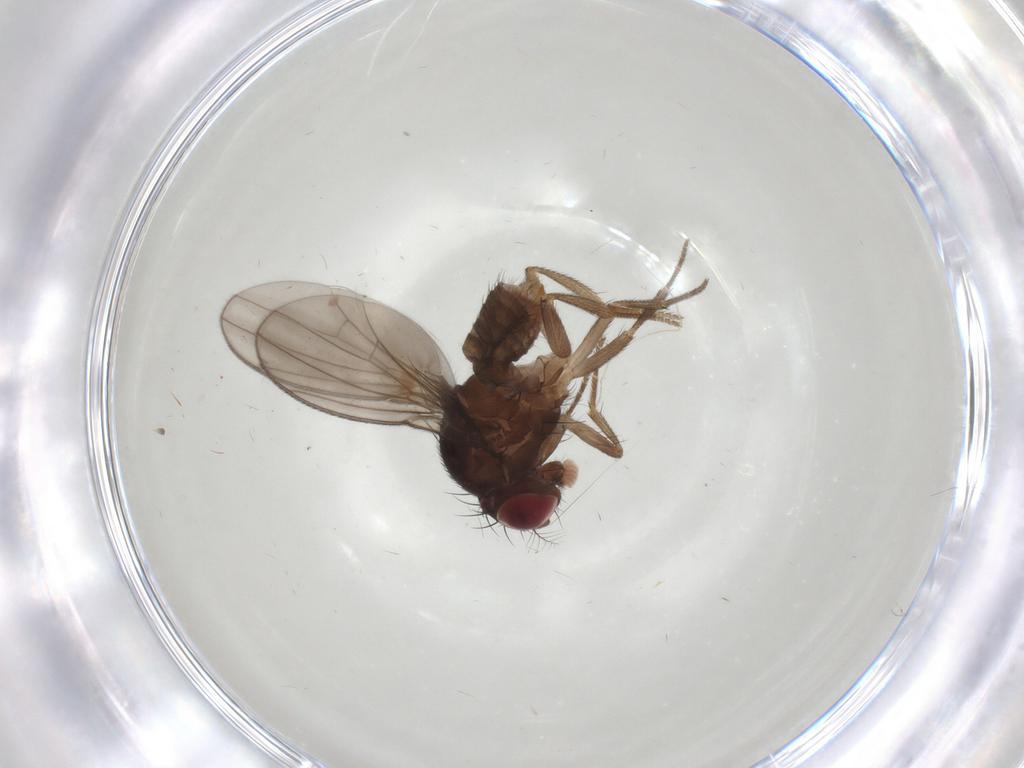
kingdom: Animalia
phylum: Arthropoda
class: Insecta
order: Diptera
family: Drosophilidae
